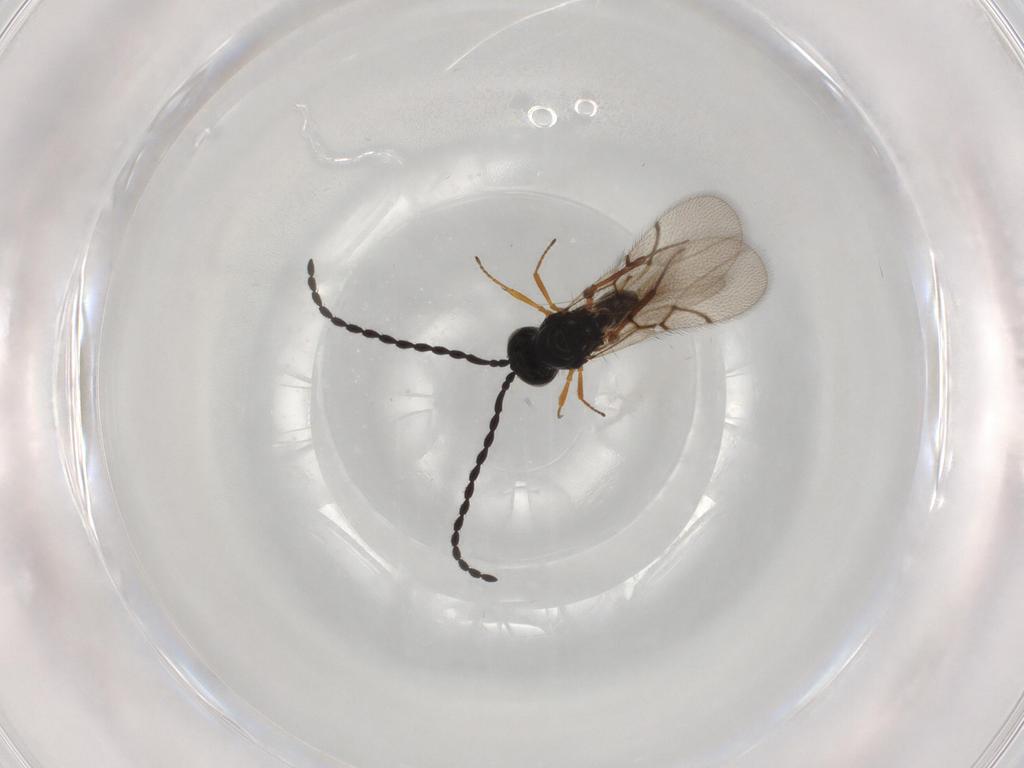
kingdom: Animalia
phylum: Arthropoda
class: Insecta
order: Hymenoptera
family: Figitidae
